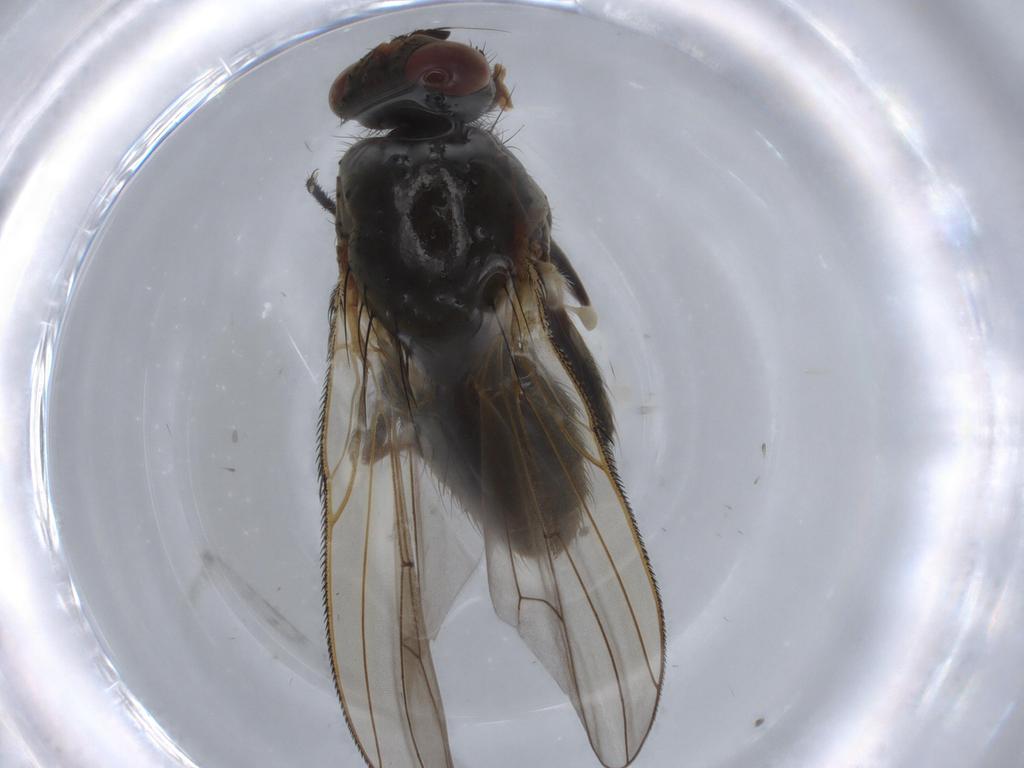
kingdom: Animalia
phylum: Arthropoda
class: Insecta
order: Diptera
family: Anthomyiidae
